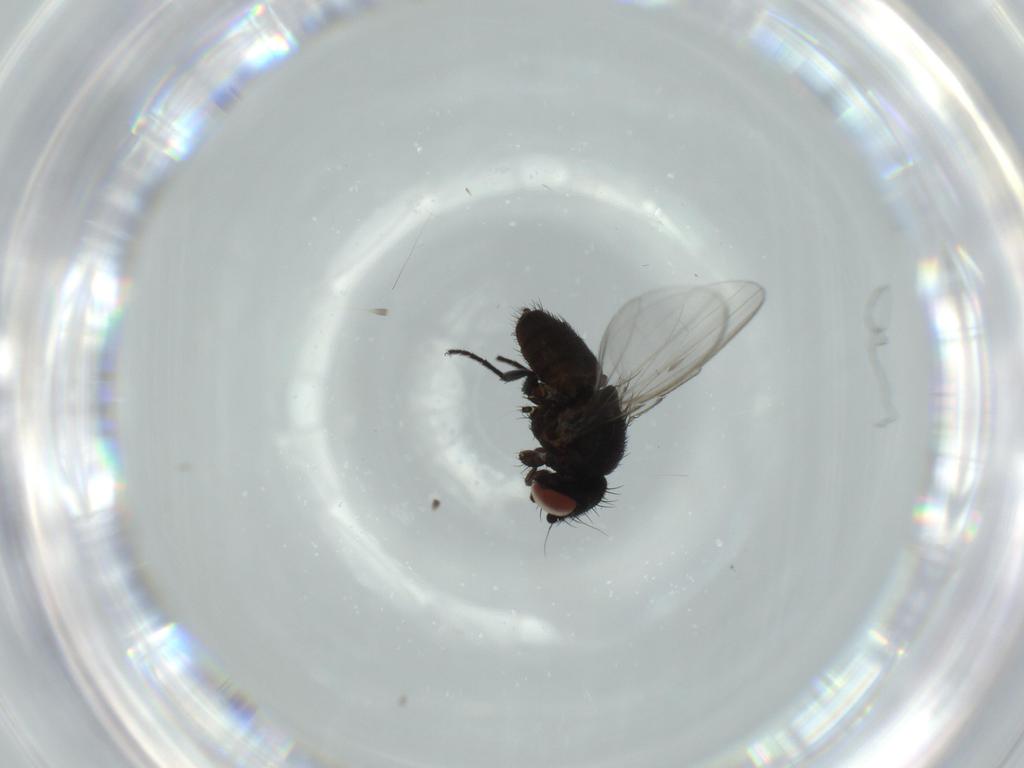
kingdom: Animalia
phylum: Arthropoda
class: Insecta
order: Diptera
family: Milichiidae
